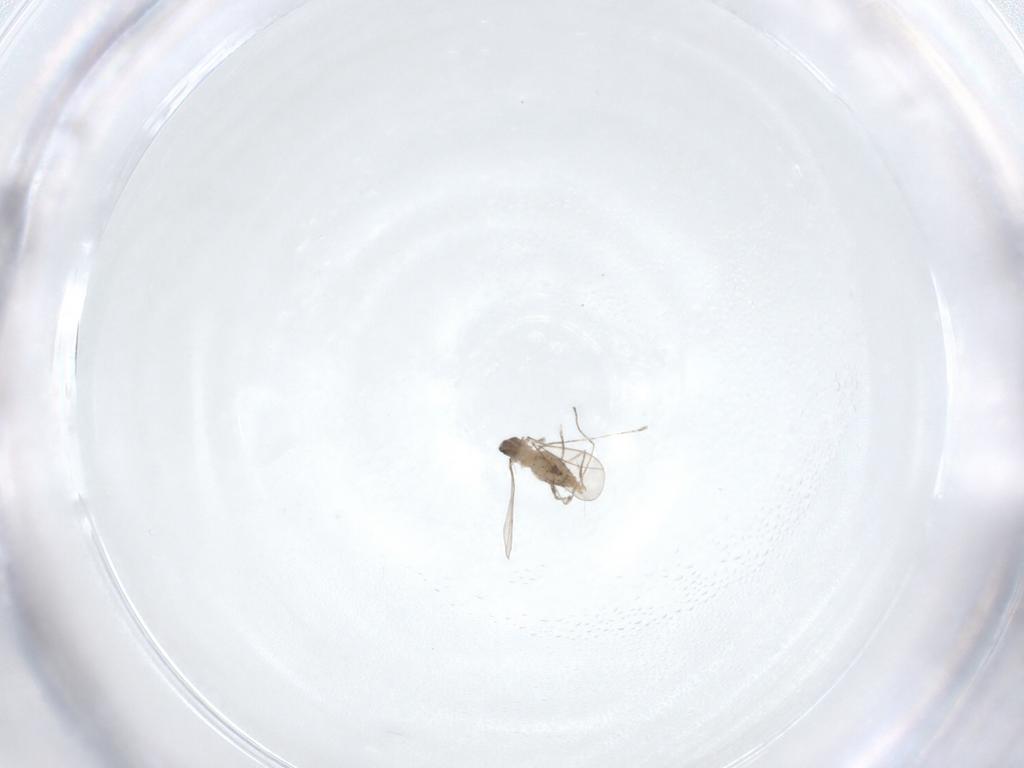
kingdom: Animalia
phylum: Arthropoda
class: Insecta
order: Diptera
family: Cecidomyiidae
